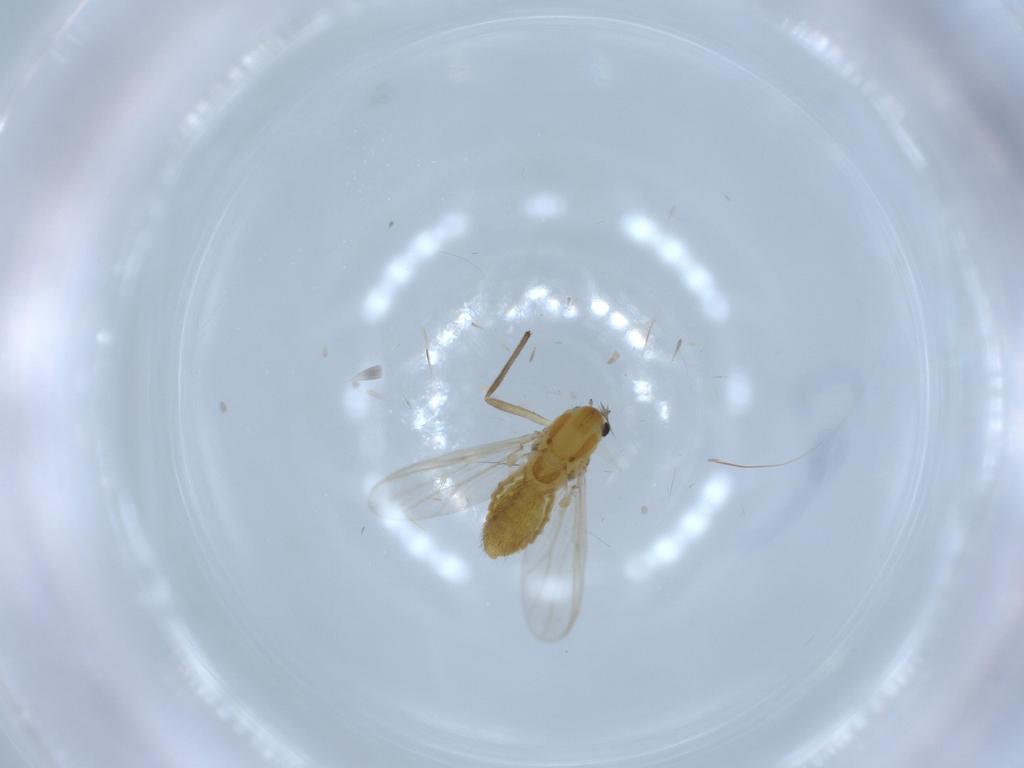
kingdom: Animalia
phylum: Arthropoda
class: Insecta
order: Diptera
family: Chironomidae
